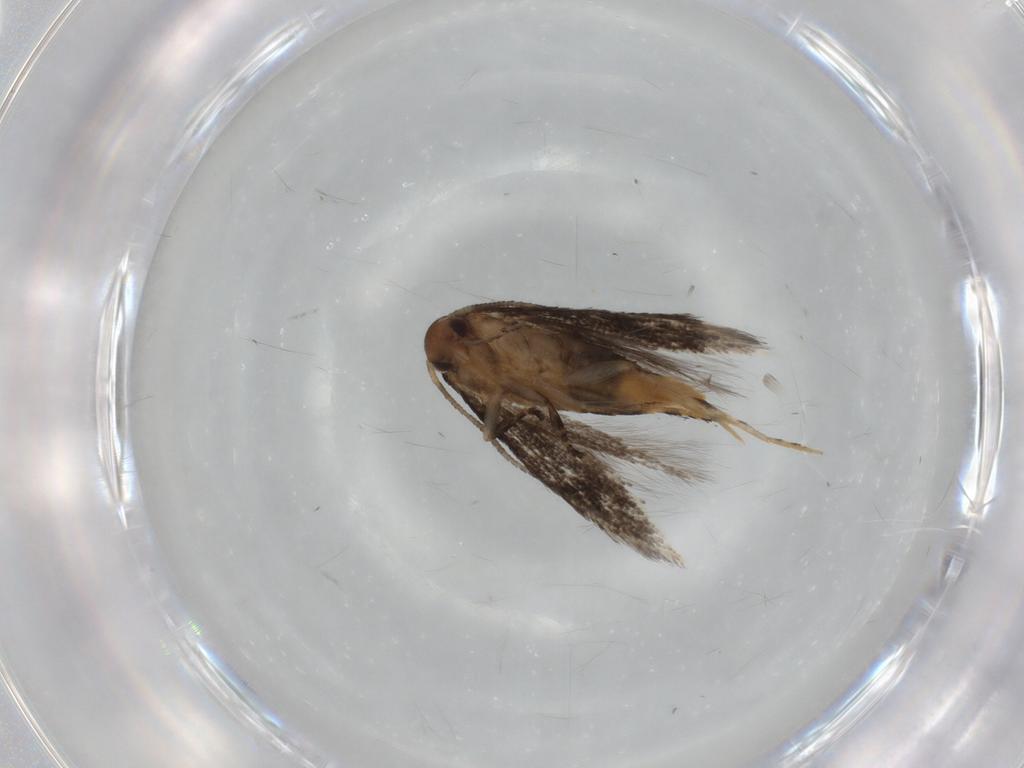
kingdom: Animalia
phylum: Arthropoda
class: Insecta
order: Lepidoptera
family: Elachistidae
